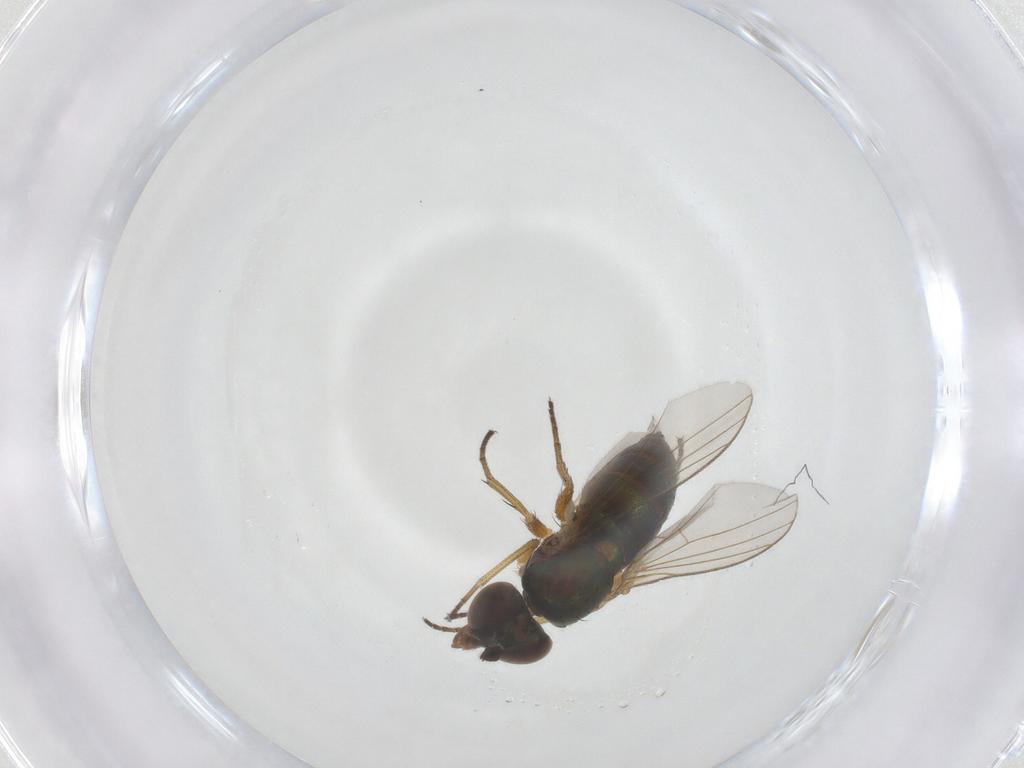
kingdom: Animalia
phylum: Arthropoda
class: Insecta
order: Diptera
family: Dolichopodidae
